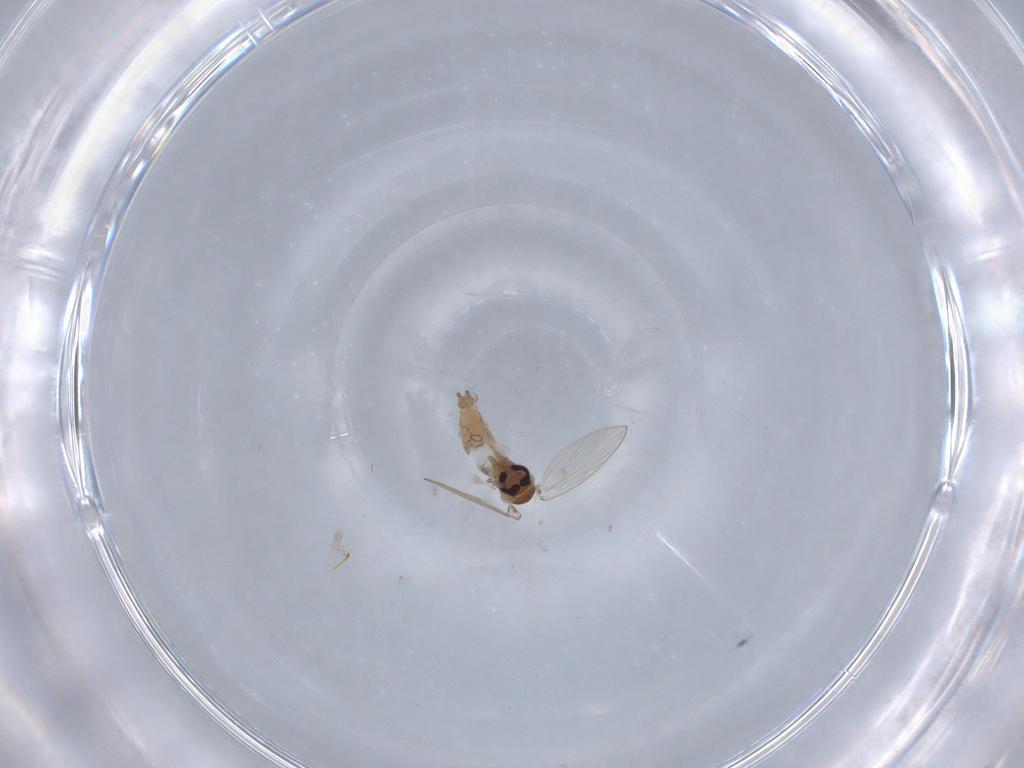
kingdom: Animalia
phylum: Arthropoda
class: Insecta
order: Diptera
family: Psychodidae
